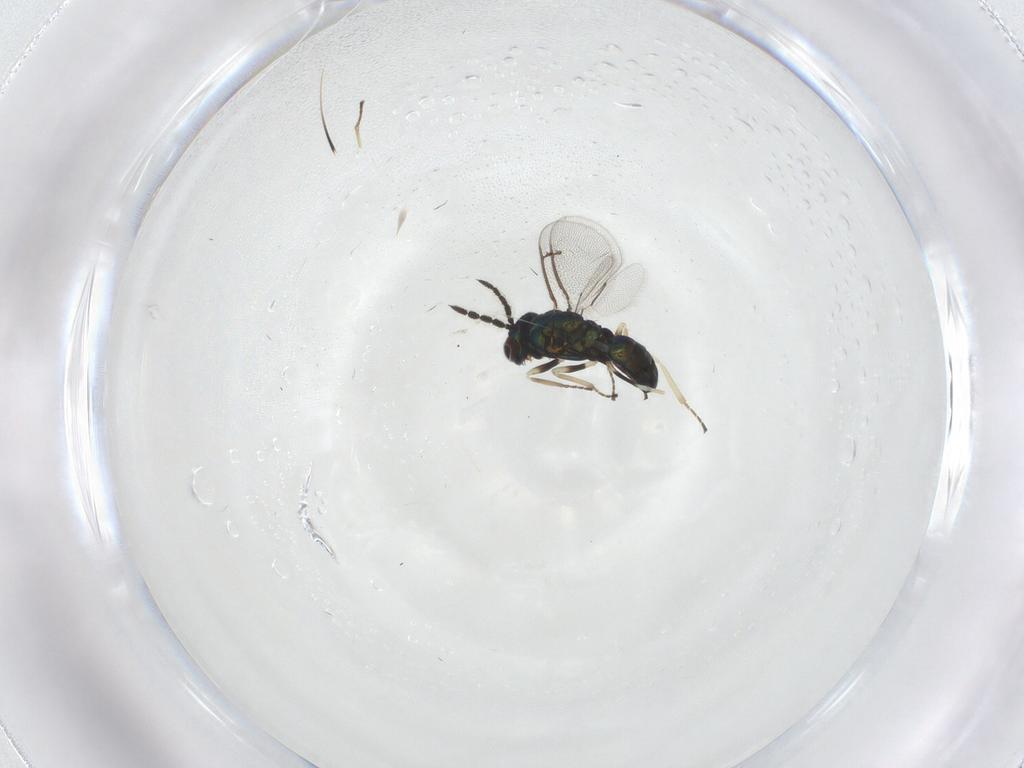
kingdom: Animalia
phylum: Arthropoda
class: Insecta
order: Hymenoptera
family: Eulophidae
